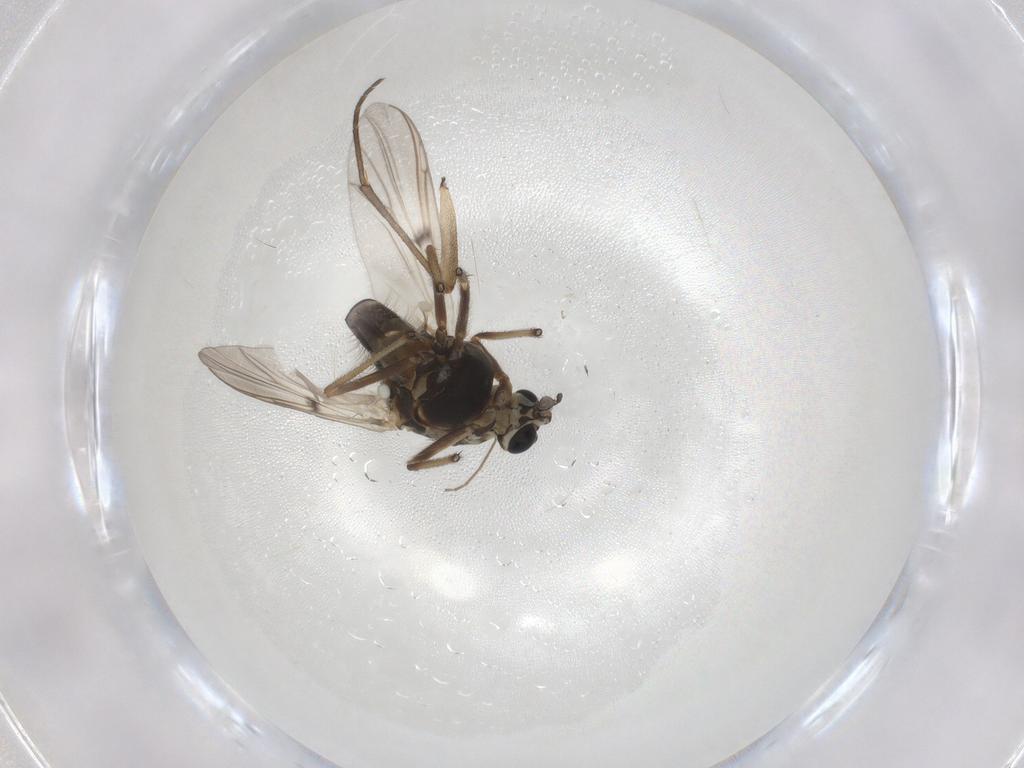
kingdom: Animalia
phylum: Arthropoda
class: Insecta
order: Diptera
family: Chironomidae
